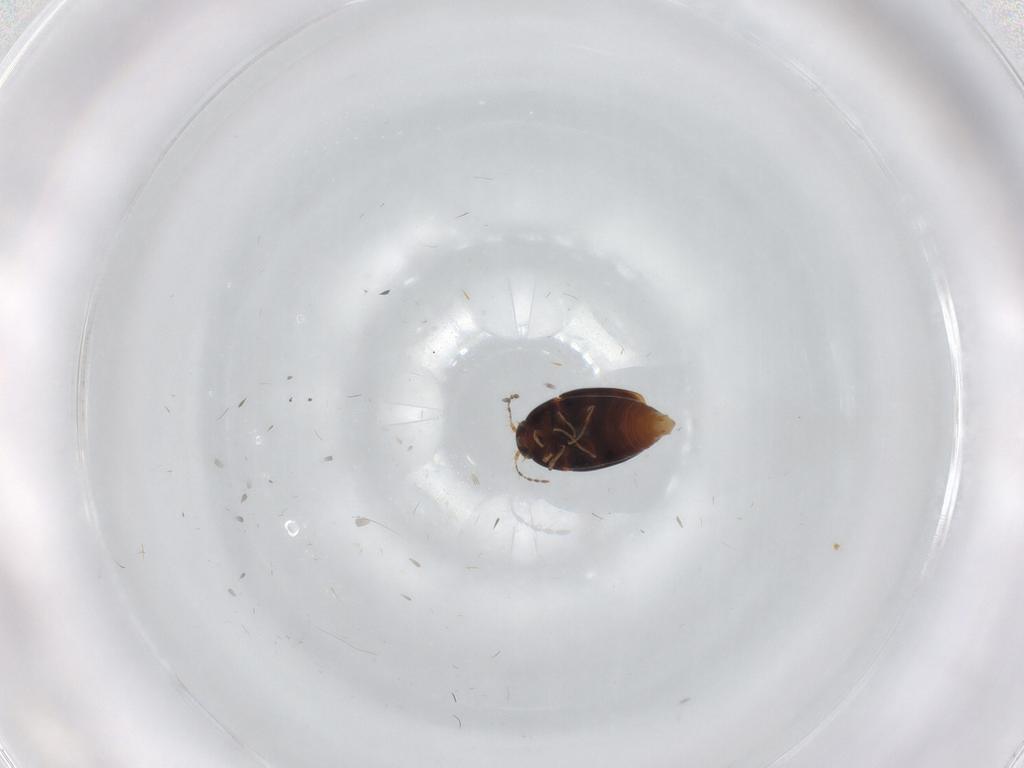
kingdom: Animalia
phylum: Arthropoda
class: Insecta
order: Coleoptera
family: Staphylinidae
